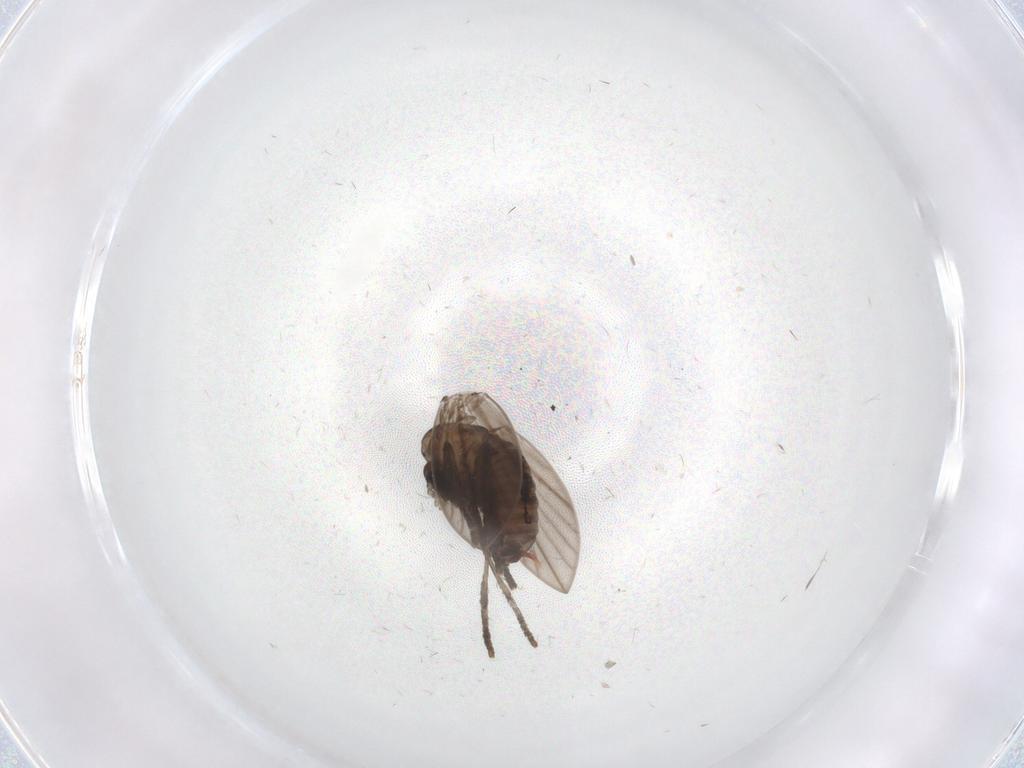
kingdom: Animalia
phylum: Arthropoda
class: Insecta
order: Diptera
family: Psychodidae
